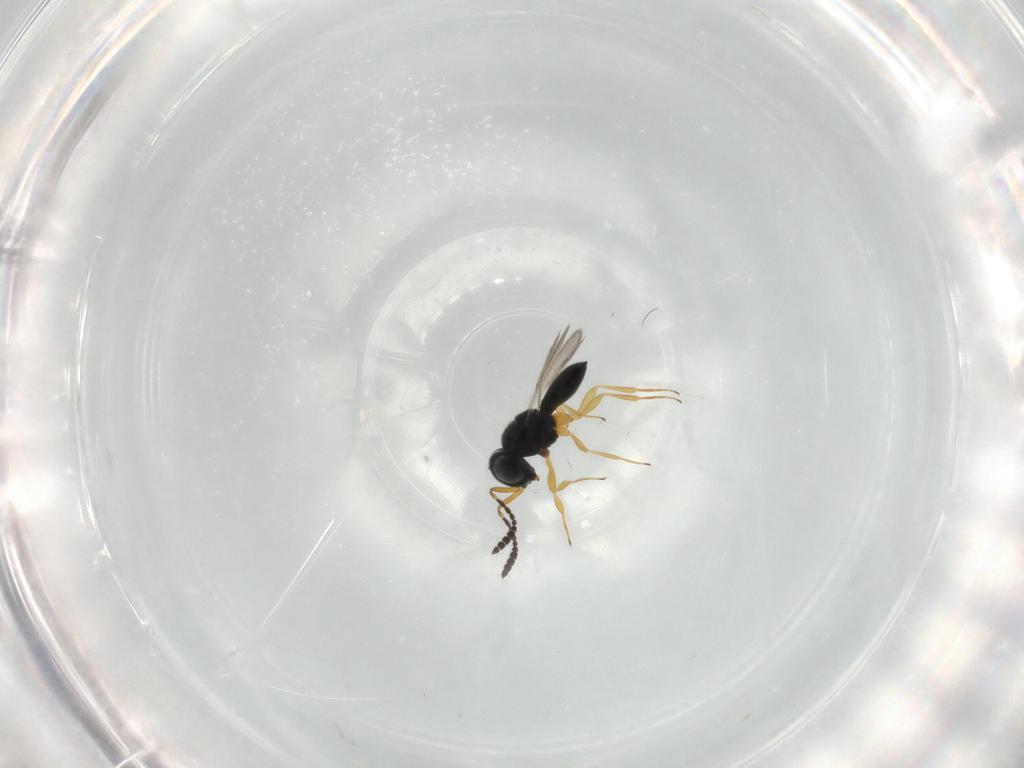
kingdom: Animalia
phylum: Arthropoda
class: Insecta
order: Hymenoptera
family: Scelionidae
